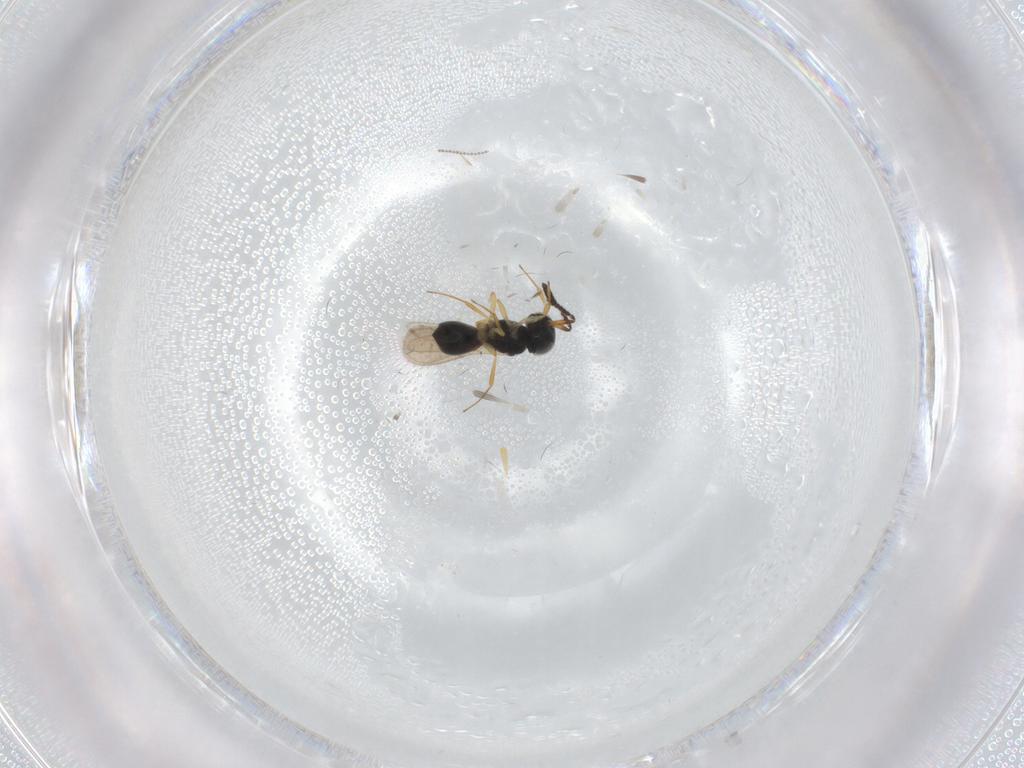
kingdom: Animalia
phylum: Arthropoda
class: Insecta
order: Hymenoptera
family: Scelionidae
